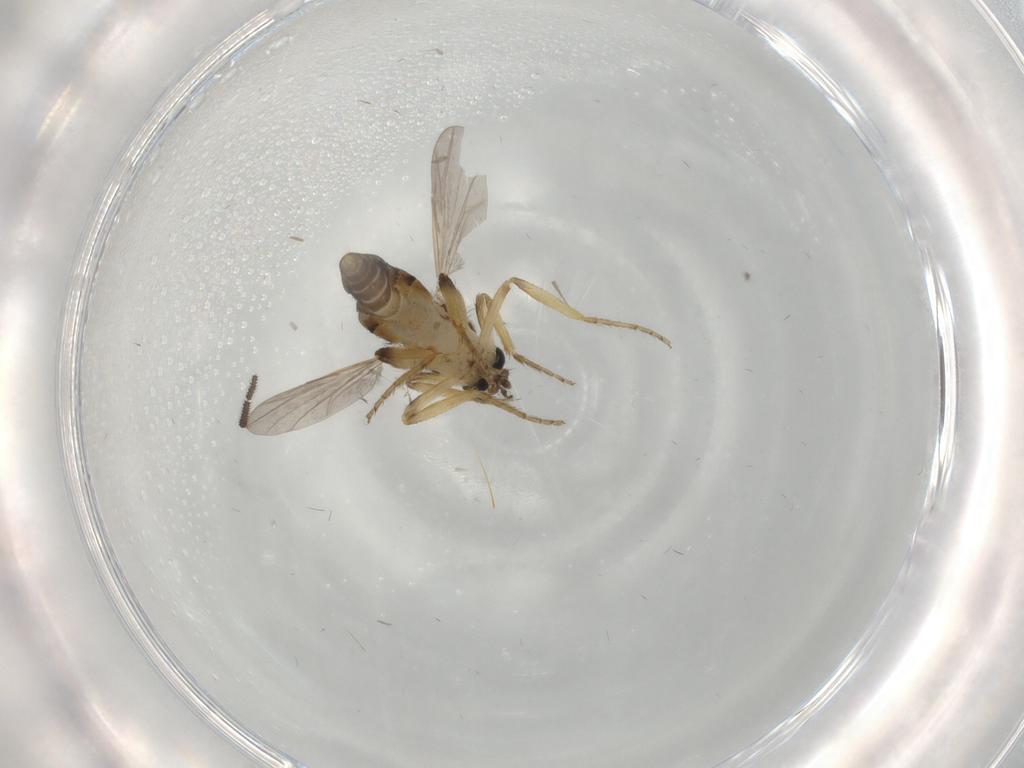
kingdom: Animalia
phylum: Arthropoda
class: Insecta
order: Diptera
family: Ceratopogonidae
